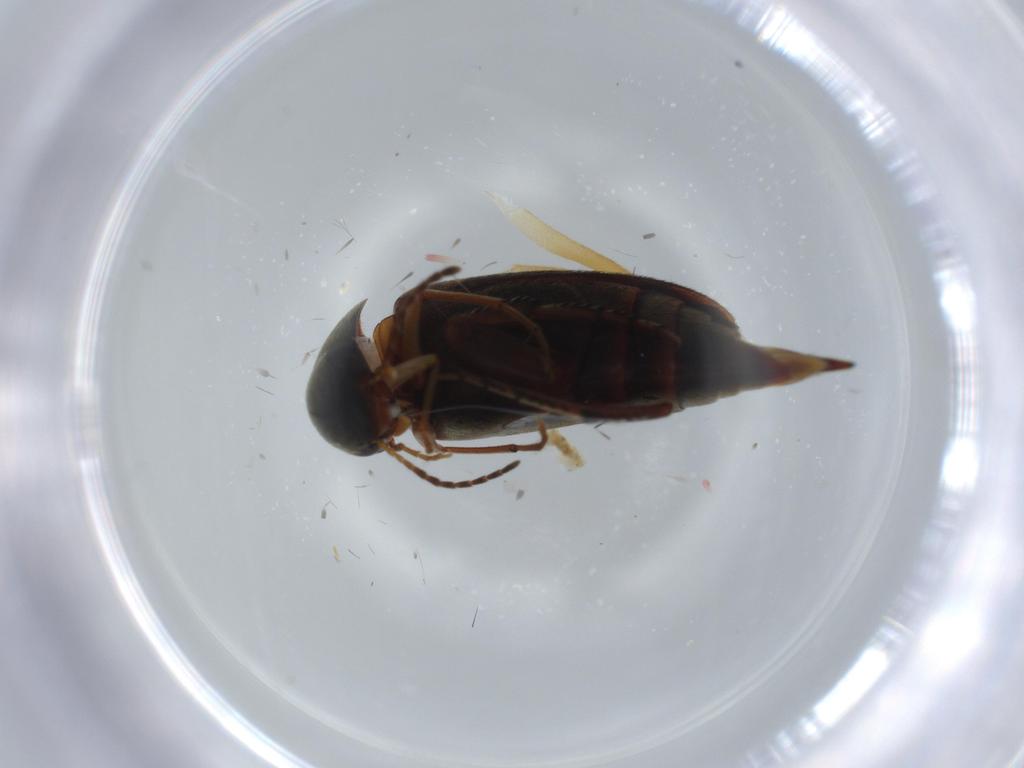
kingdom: Animalia
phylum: Arthropoda
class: Insecta
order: Coleoptera
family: Mordellidae
